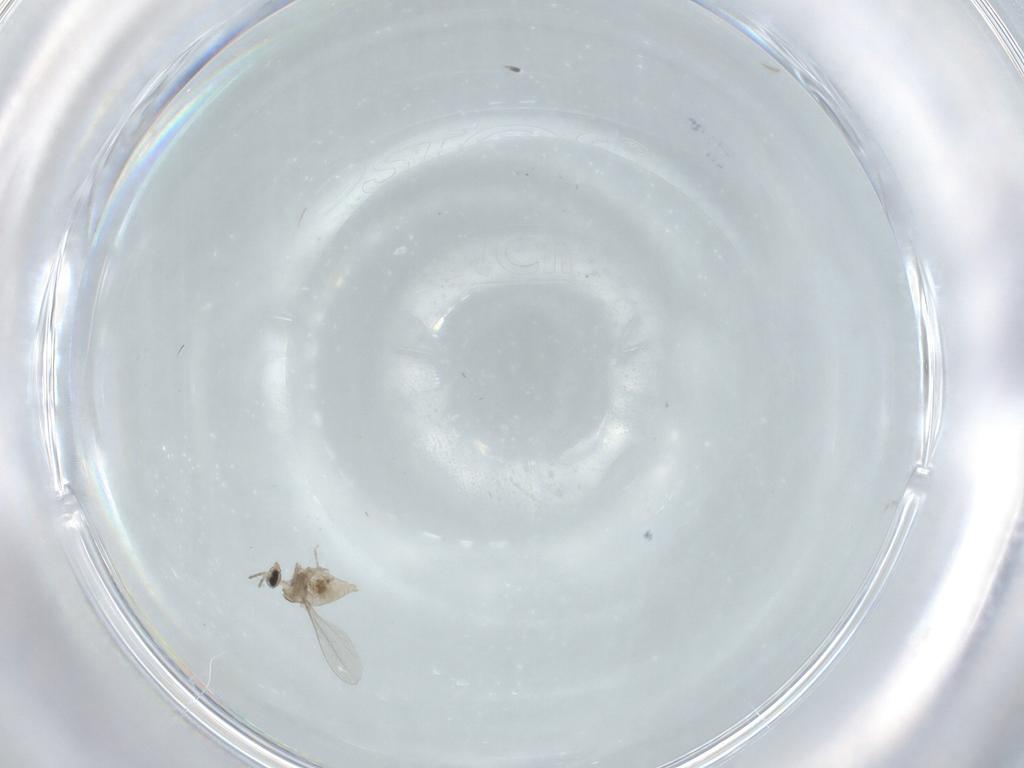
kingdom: Animalia
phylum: Arthropoda
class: Insecta
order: Diptera
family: Cecidomyiidae
